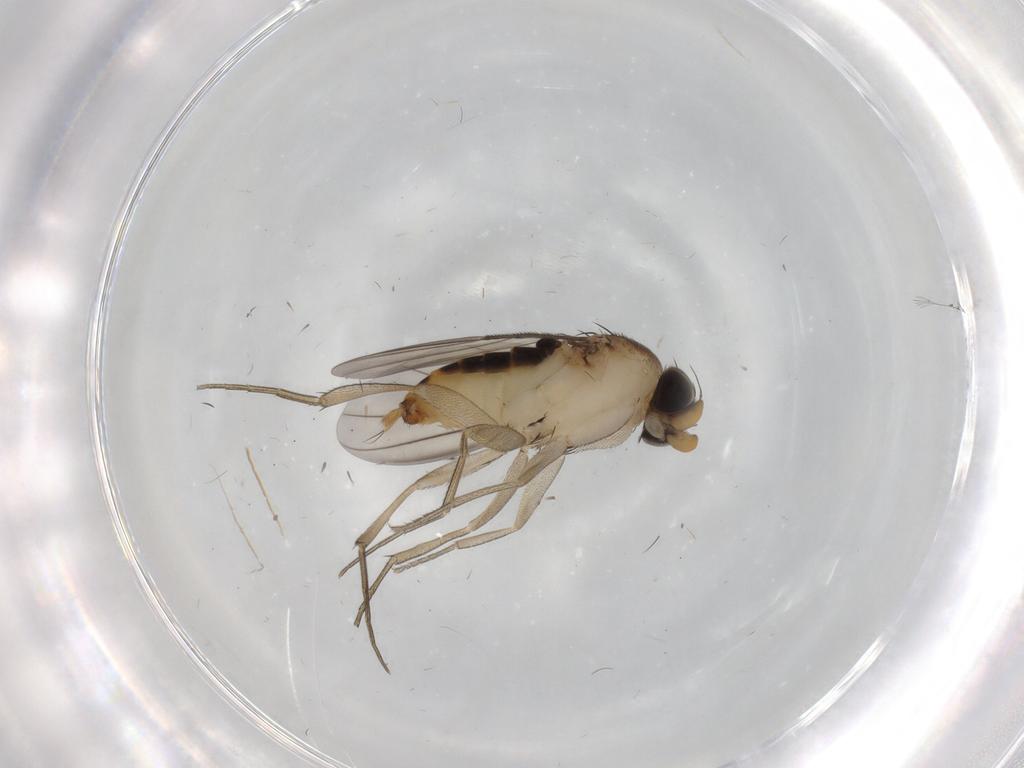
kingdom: Animalia
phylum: Arthropoda
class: Insecta
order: Diptera
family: Phoridae
